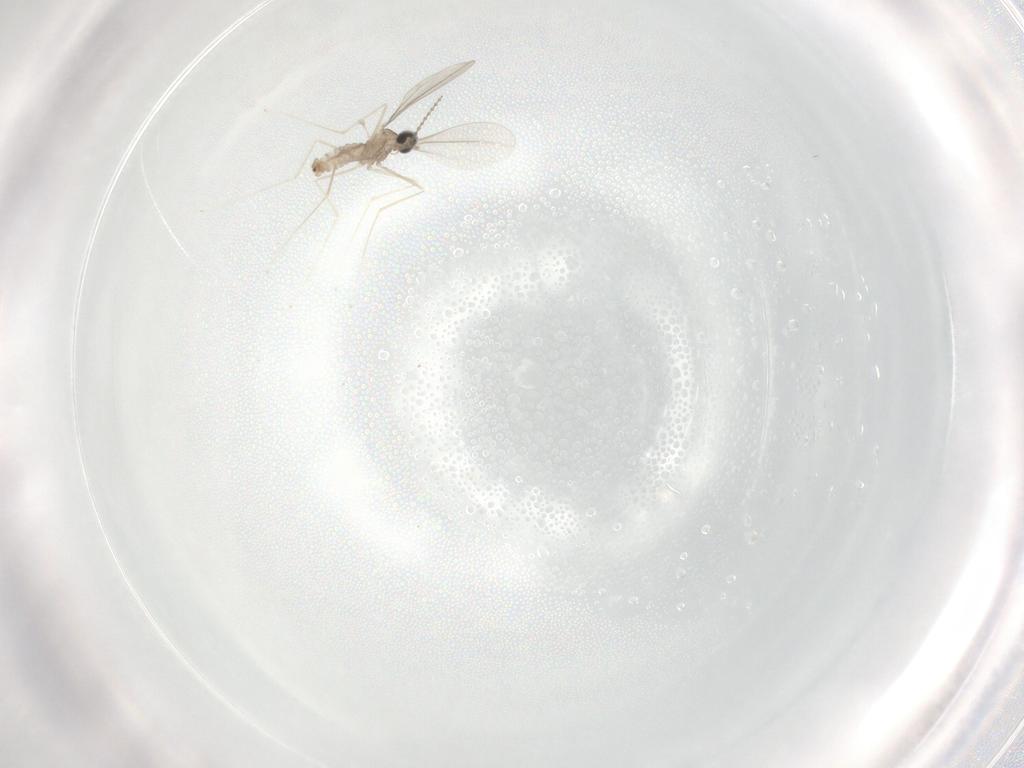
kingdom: Animalia
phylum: Arthropoda
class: Insecta
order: Diptera
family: Cecidomyiidae
